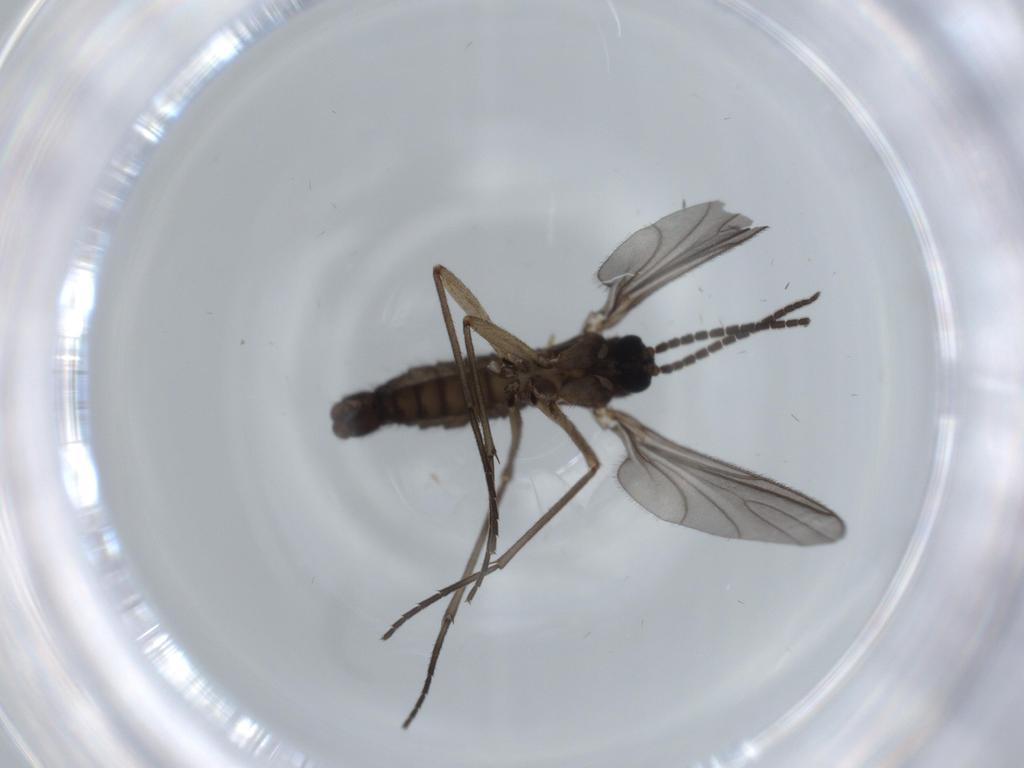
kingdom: Animalia
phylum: Arthropoda
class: Insecta
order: Diptera
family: Sciaridae
